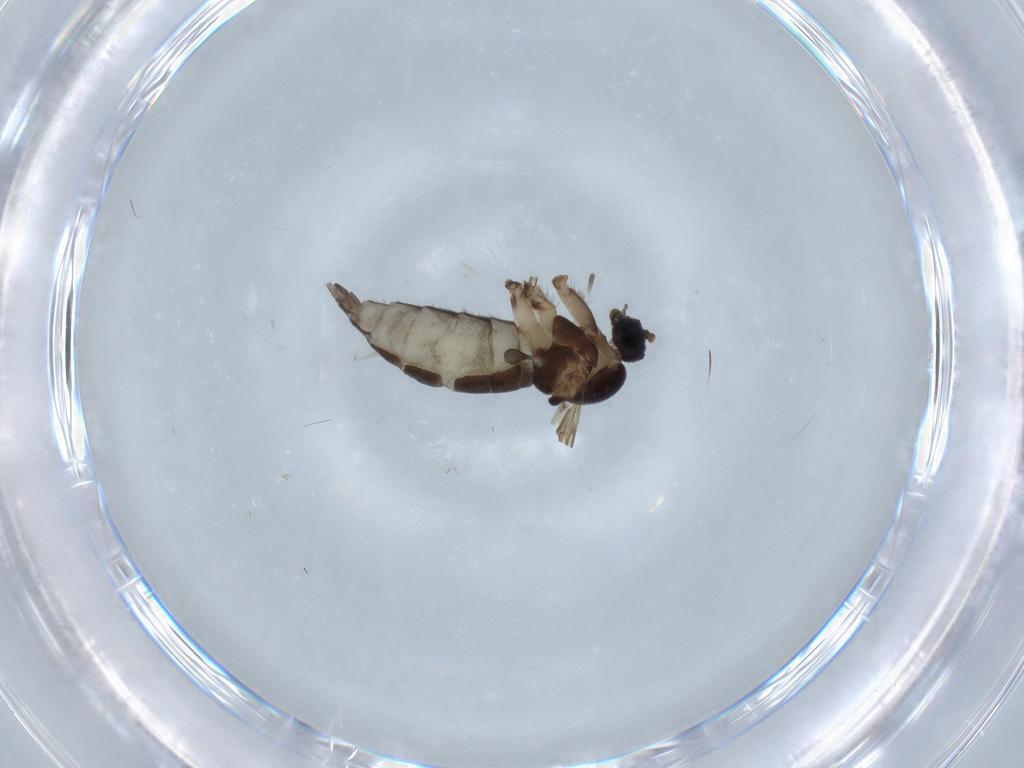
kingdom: Animalia
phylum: Arthropoda
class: Insecta
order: Diptera
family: Sciaridae
